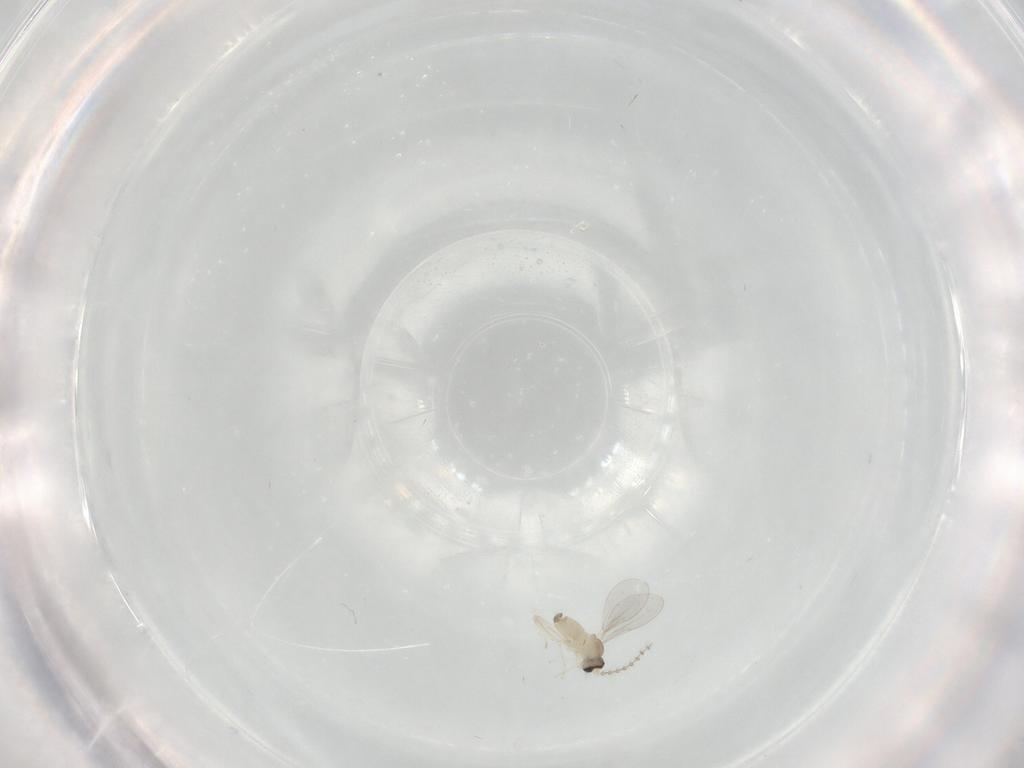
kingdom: Animalia
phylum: Arthropoda
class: Insecta
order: Diptera
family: Cecidomyiidae
